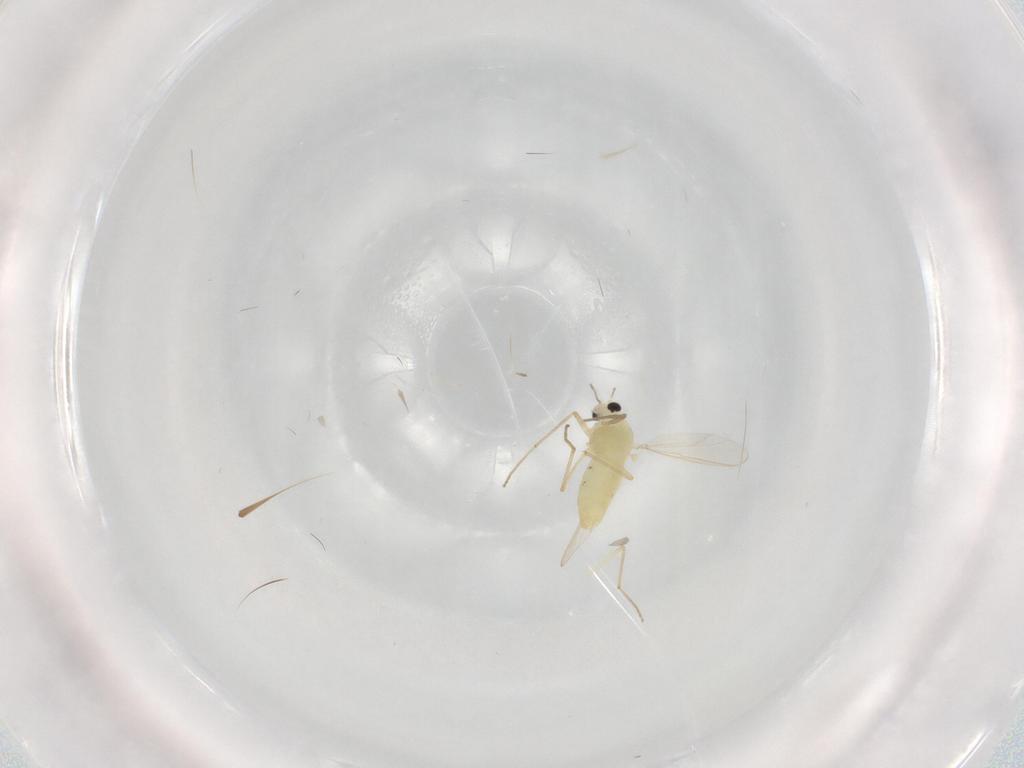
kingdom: Animalia
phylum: Arthropoda
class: Insecta
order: Diptera
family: Chironomidae
